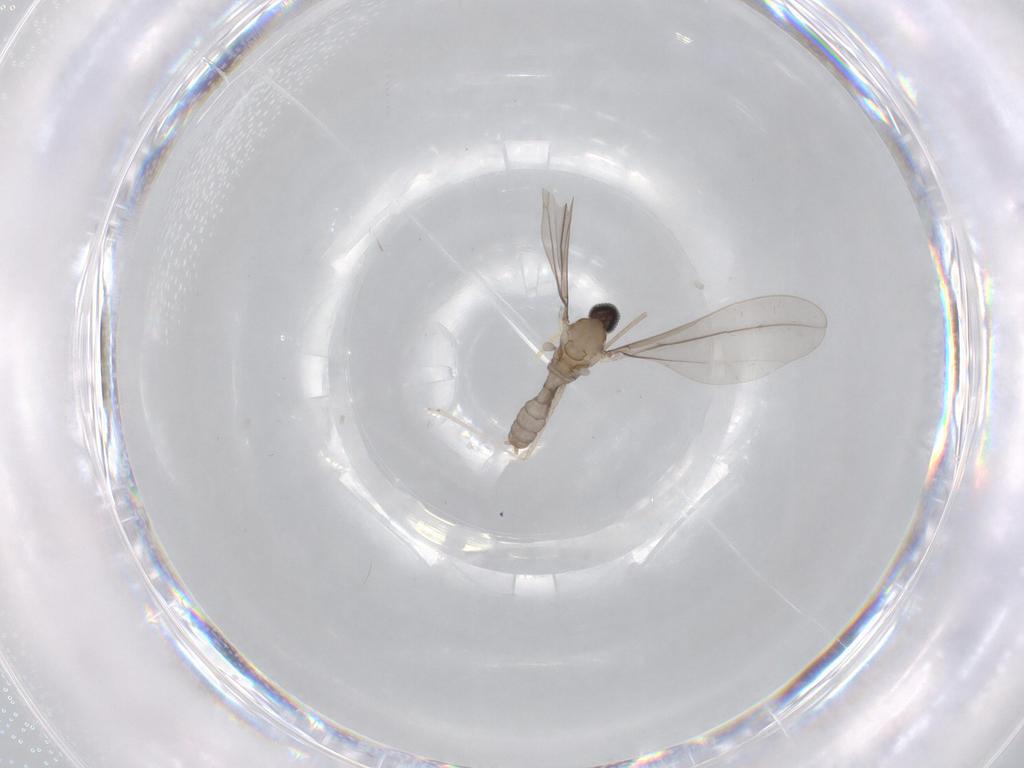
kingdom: Animalia
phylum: Arthropoda
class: Insecta
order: Diptera
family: Cecidomyiidae
